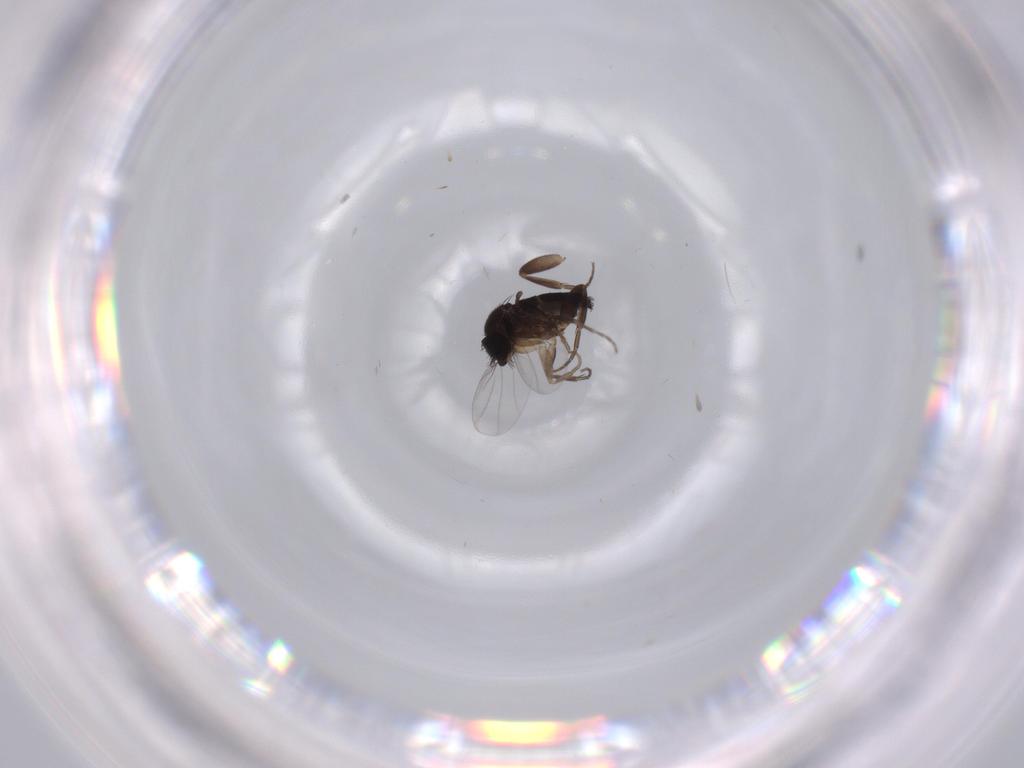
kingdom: Animalia
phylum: Arthropoda
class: Insecta
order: Diptera
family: Phoridae
